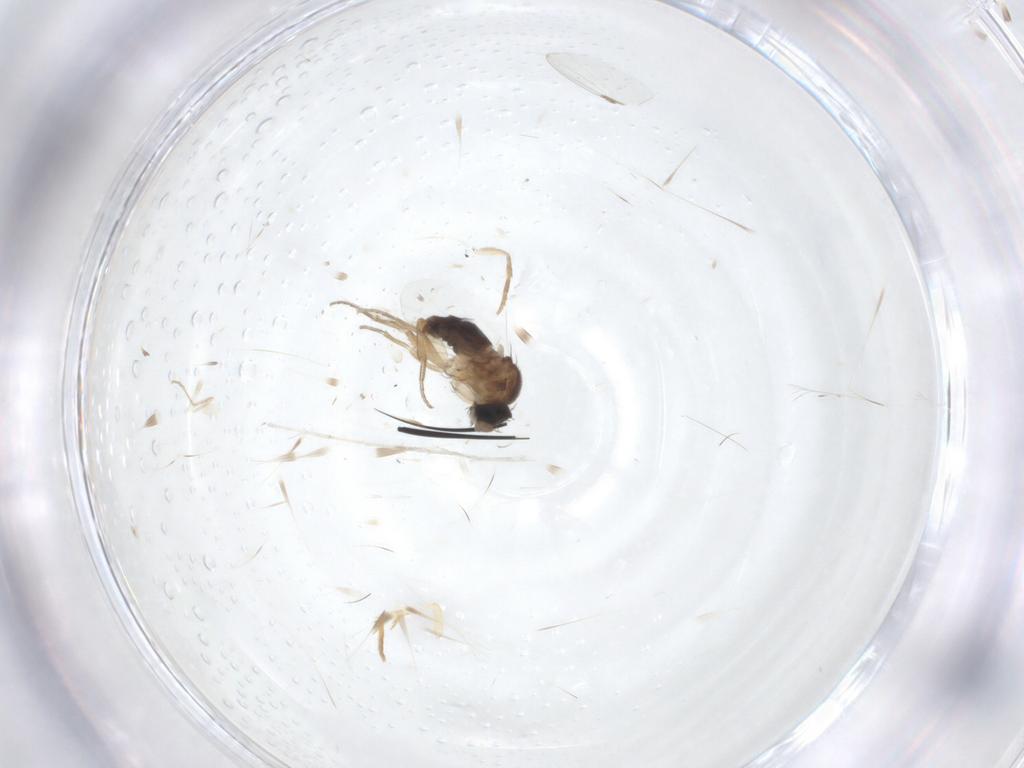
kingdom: Animalia
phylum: Arthropoda
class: Insecta
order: Diptera
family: Cecidomyiidae
